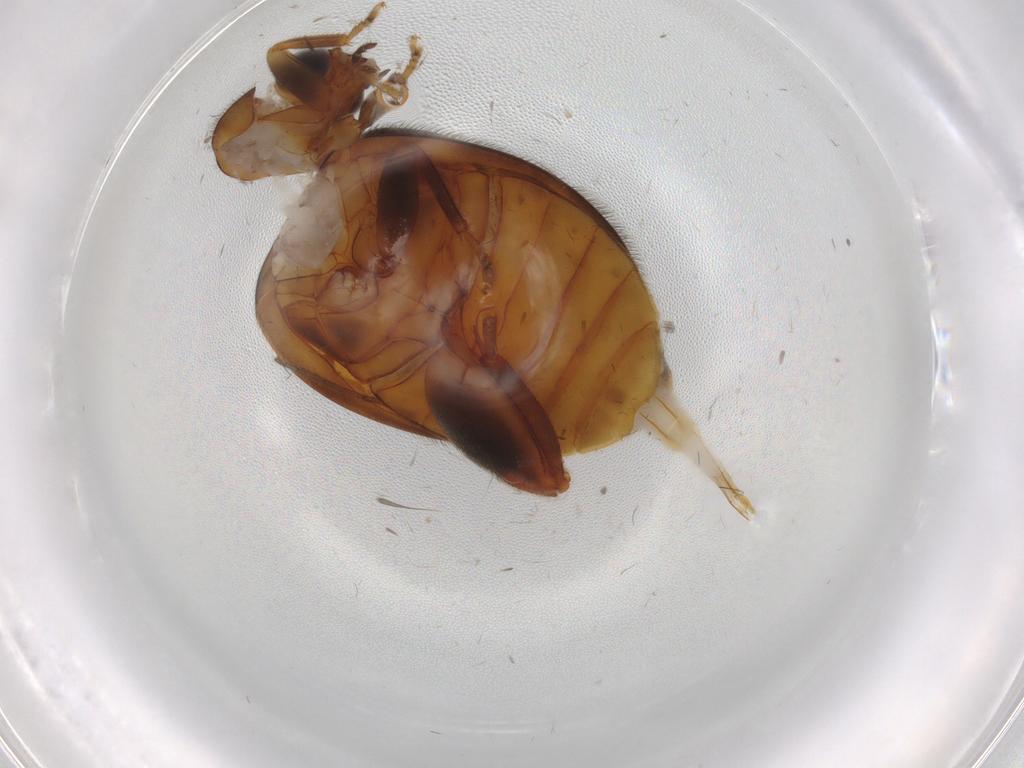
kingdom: Animalia
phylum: Arthropoda
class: Insecta
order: Coleoptera
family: Scirtidae
